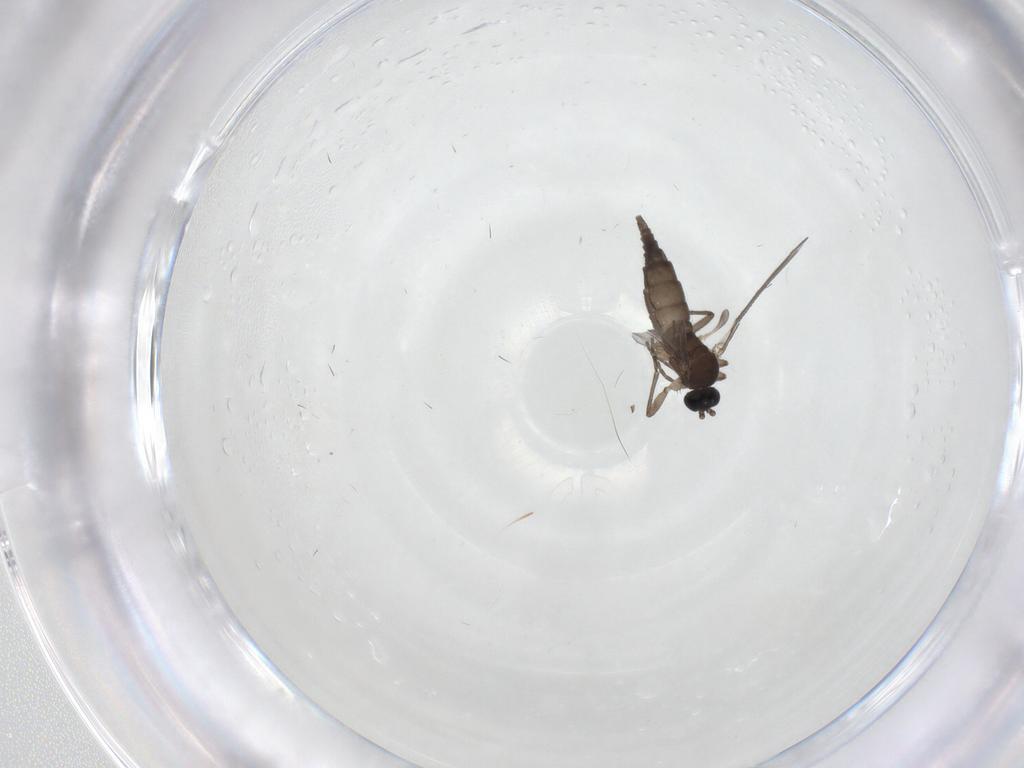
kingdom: Animalia
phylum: Arthropoda
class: Insecta
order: Diptera
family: Sciaridae
